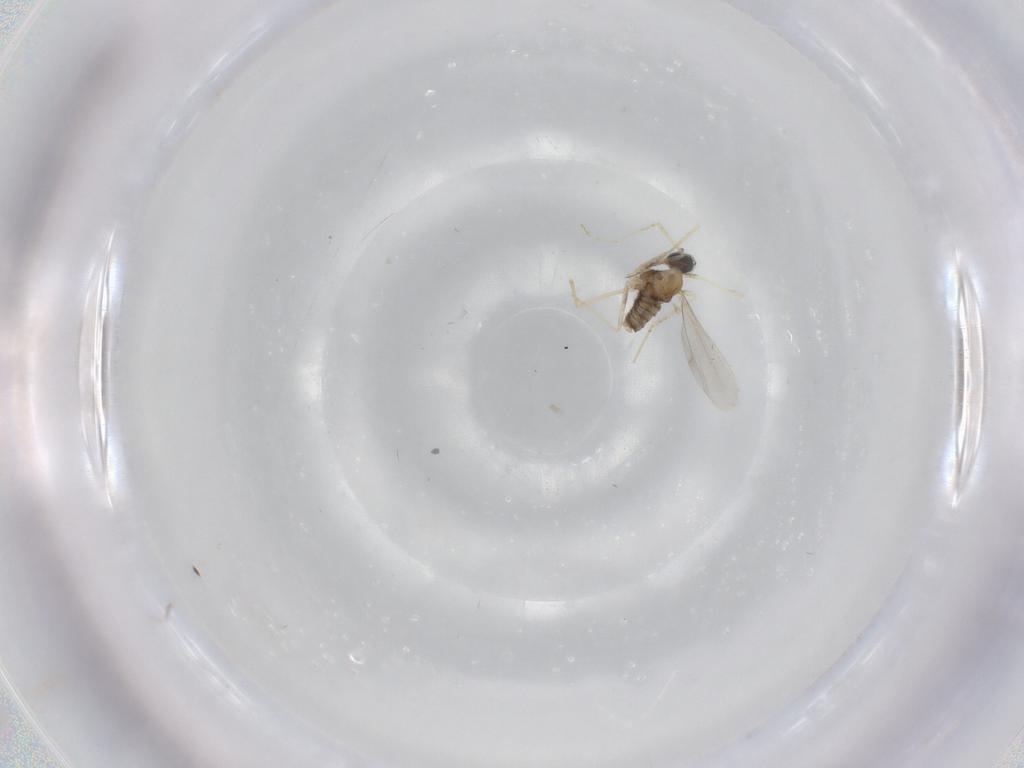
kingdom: Animalia
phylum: Arthropoda
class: Insecta
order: Diptera
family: Cecidomyiidae
